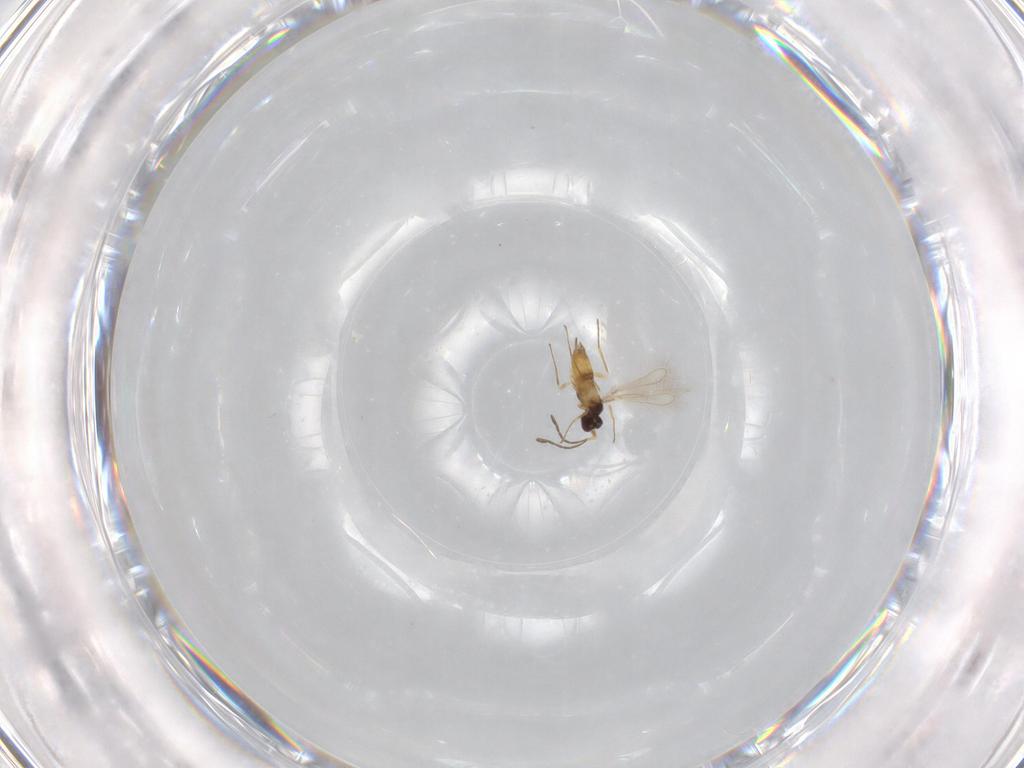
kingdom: Animalia
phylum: Arthropoda
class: Insecta
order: Hymenoptera
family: Mymaridae
